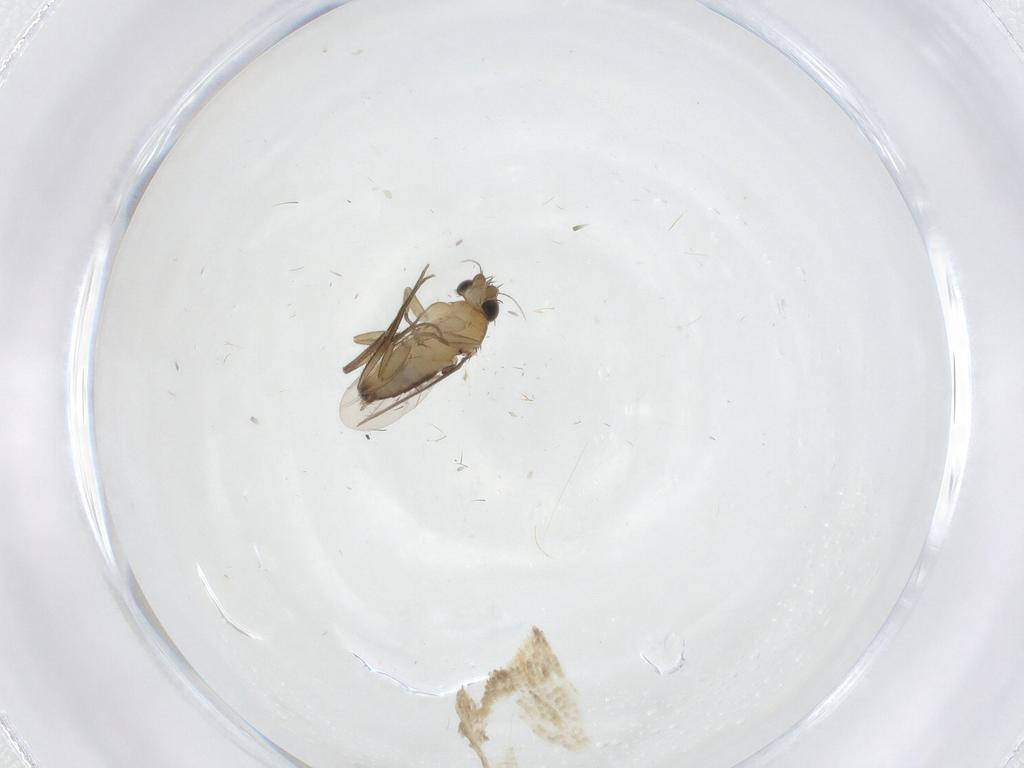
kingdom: Animalia
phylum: Arthropoda
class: Insecta
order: Diptera
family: Phoridae
